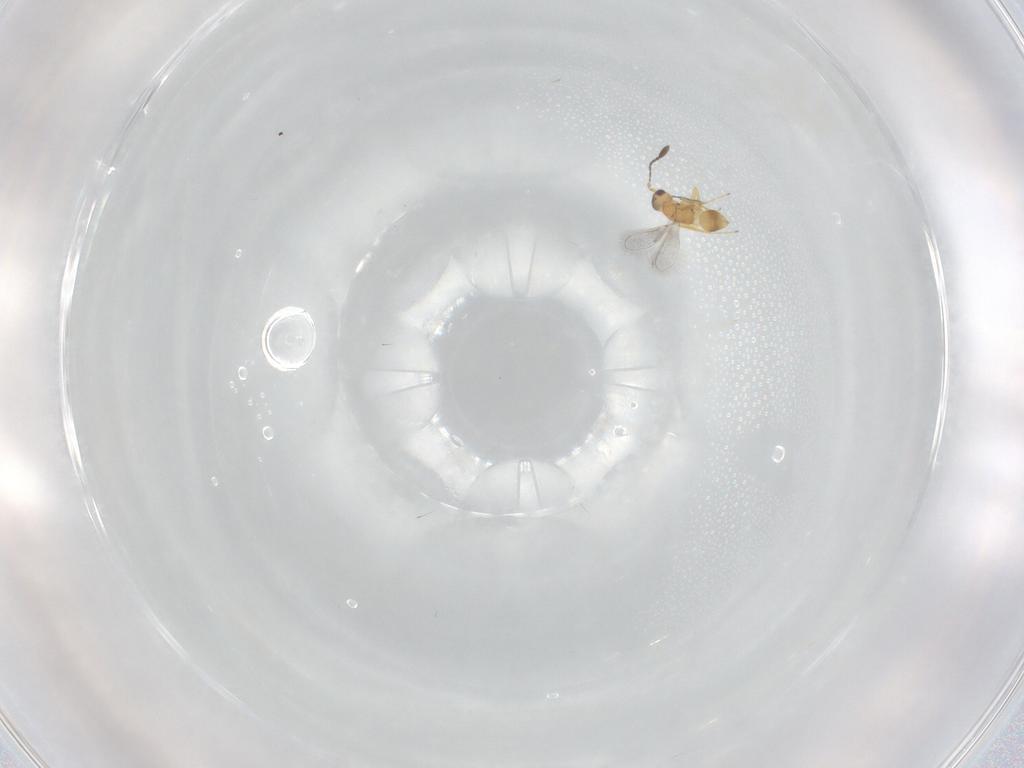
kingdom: Animalia
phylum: Arthropoda
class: Insecta
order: Hymenoptera
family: Mymaridae
